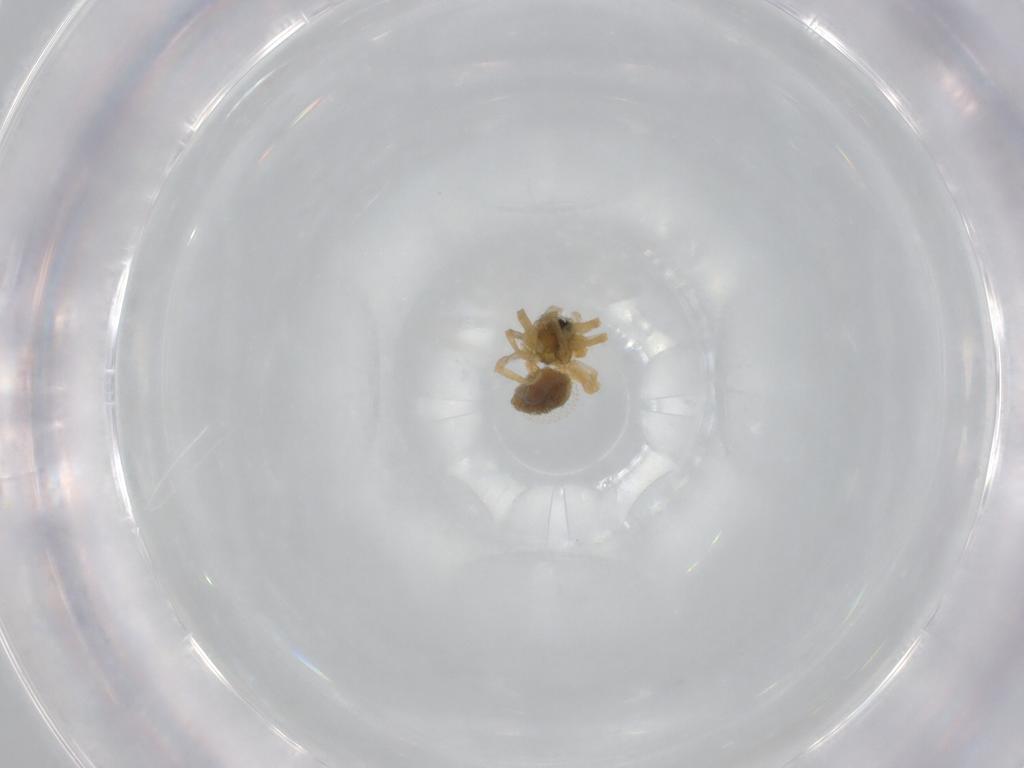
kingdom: Animalia
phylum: Arthropoda
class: Arachnida
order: Araneae
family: Linyphiidae
